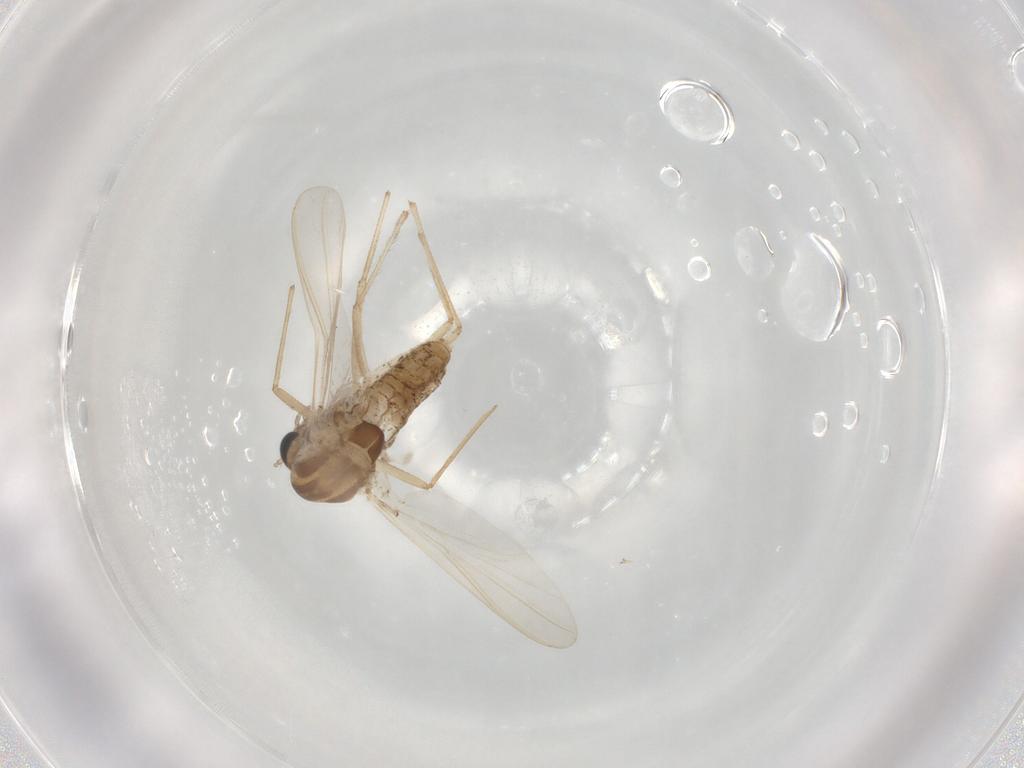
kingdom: Animalia
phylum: Arthropoda
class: Insecta
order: Diptera
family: Chironomidae
